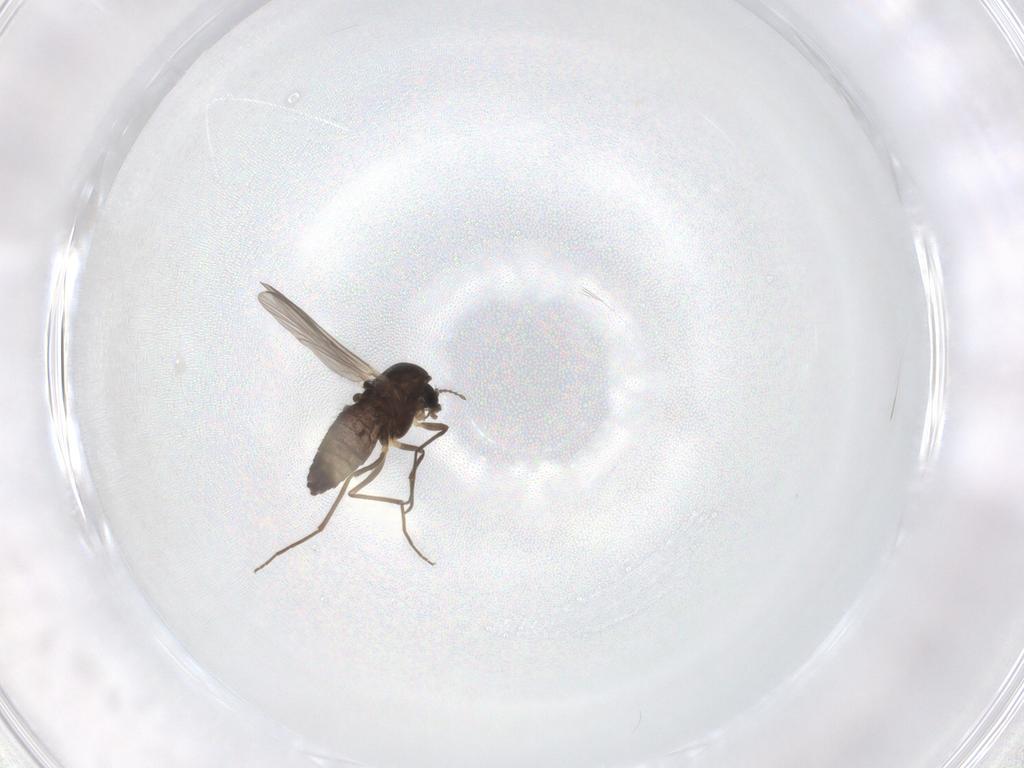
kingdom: Animalia
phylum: Arthropoda
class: Insecta
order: Diptera
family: Chironomidae
